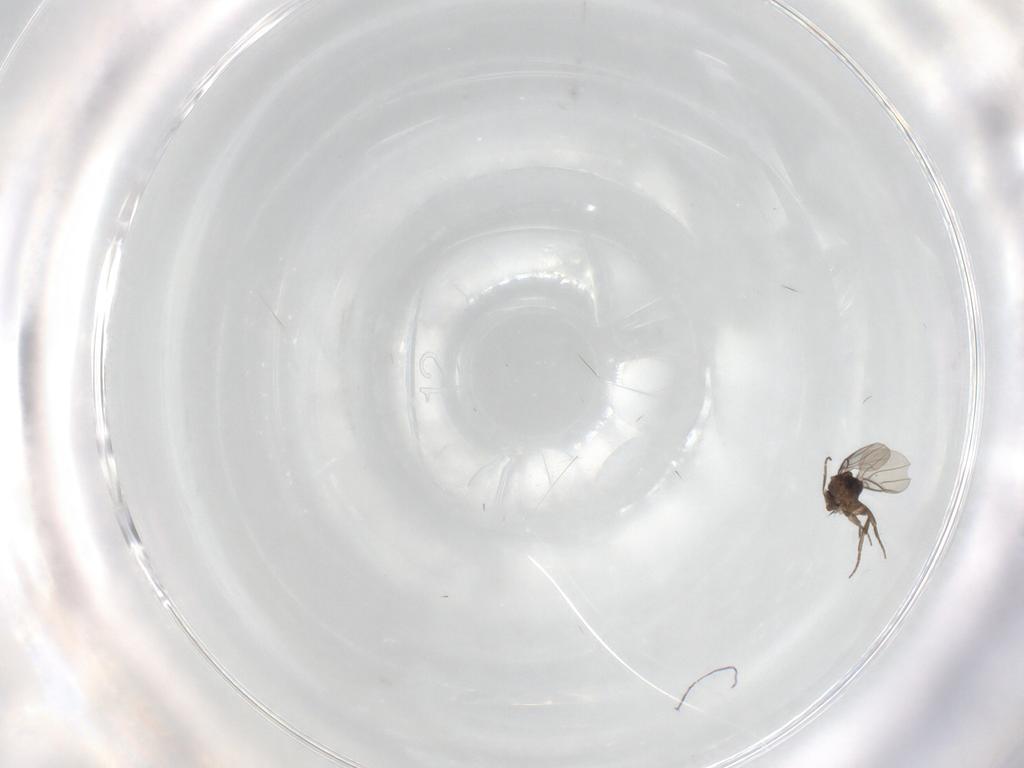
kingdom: Animalia
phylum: Arthropoda
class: Insecta
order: Diptera
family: Phoridae
